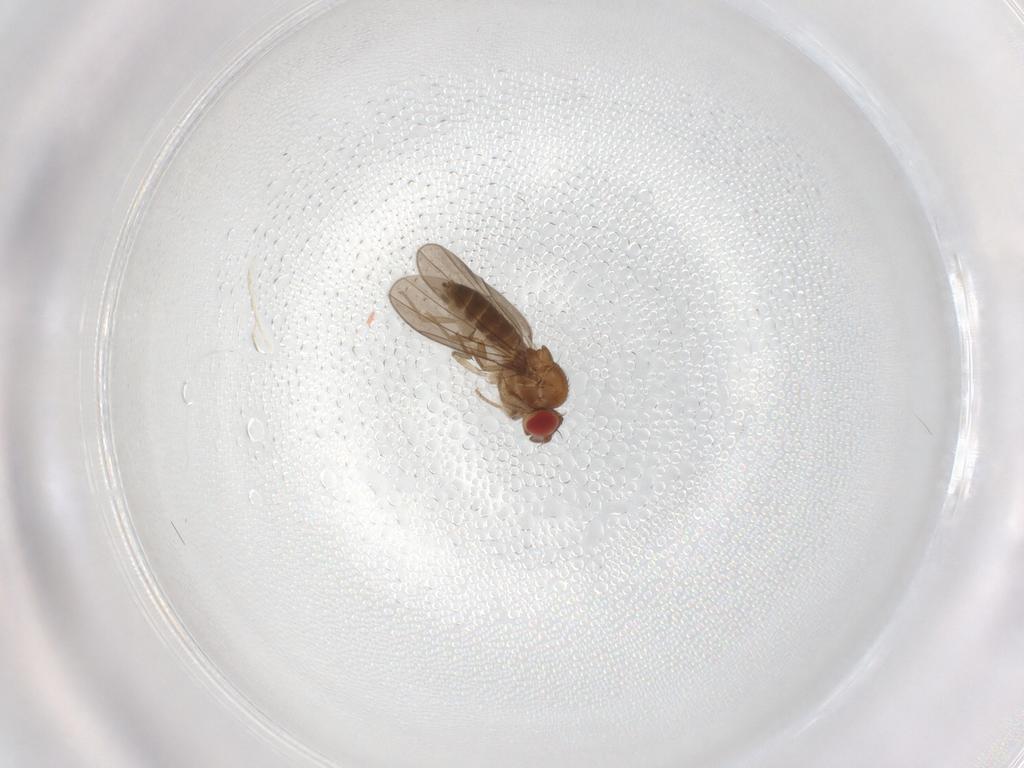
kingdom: Animalia
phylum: Arthropoda
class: Insecta
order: Diptera
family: Drosophilidae
